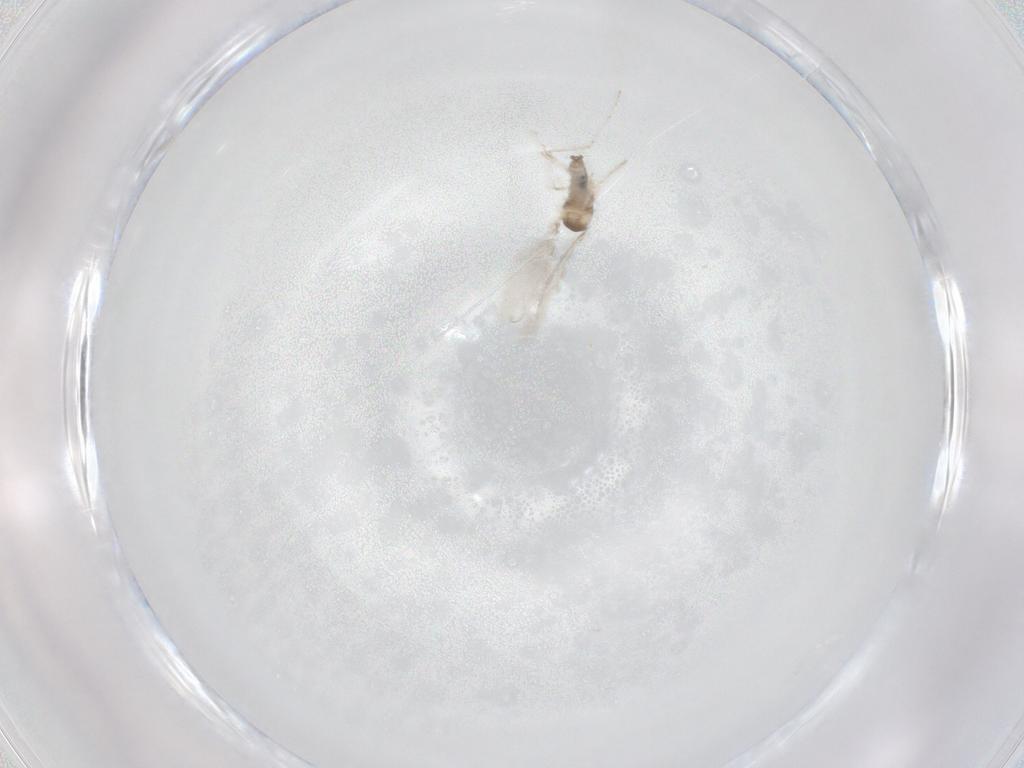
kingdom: Animalia
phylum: Arthropoda
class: Insecta
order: Diptera
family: Cecidomyiidae
